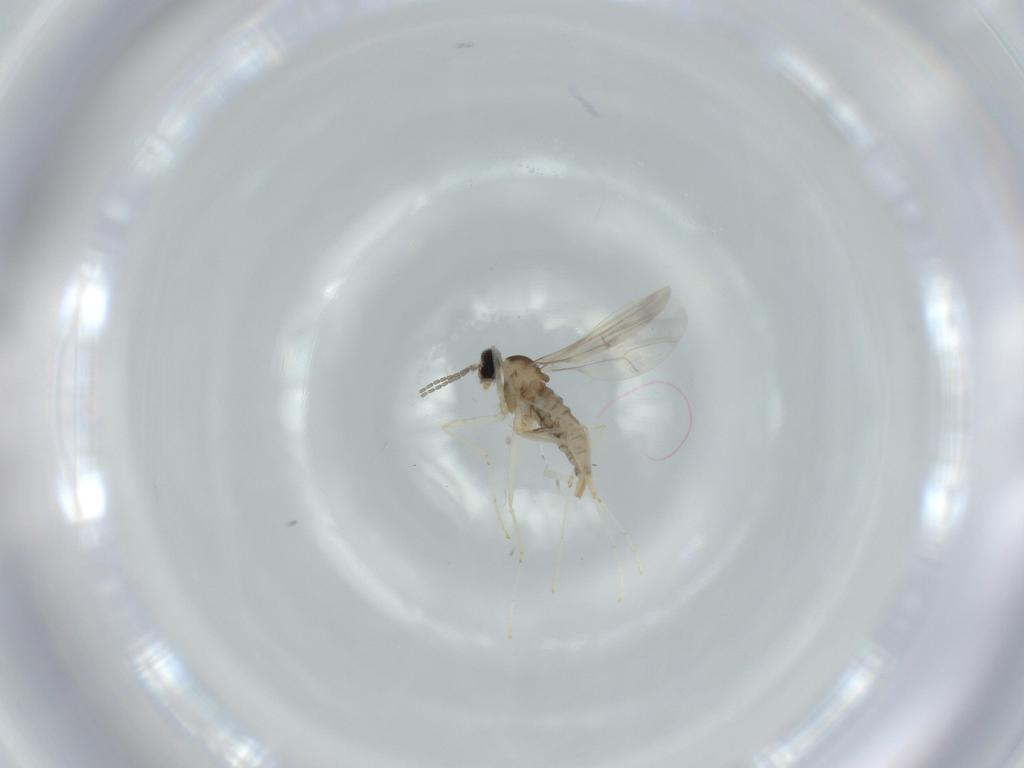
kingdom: Animalia
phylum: Arthropoda
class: Insecta
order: Diptera
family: Cecidomyiidae
